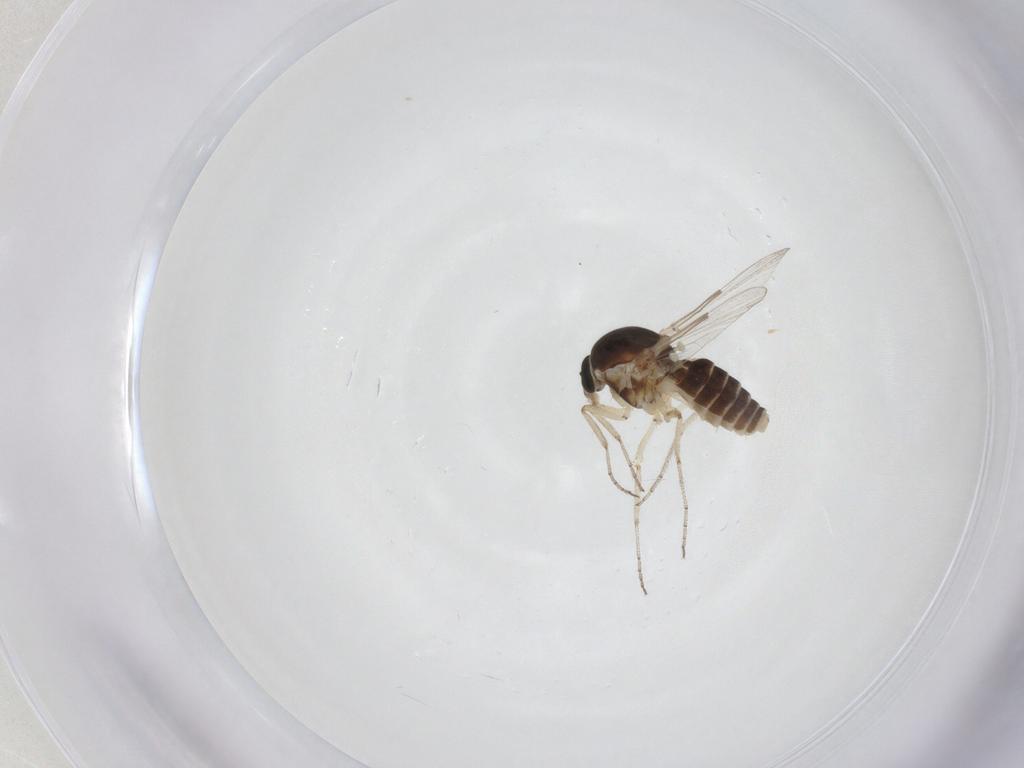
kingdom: Animalia
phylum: Arthropoda
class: Insecta
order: Diptera
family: Ceratopogonidae
